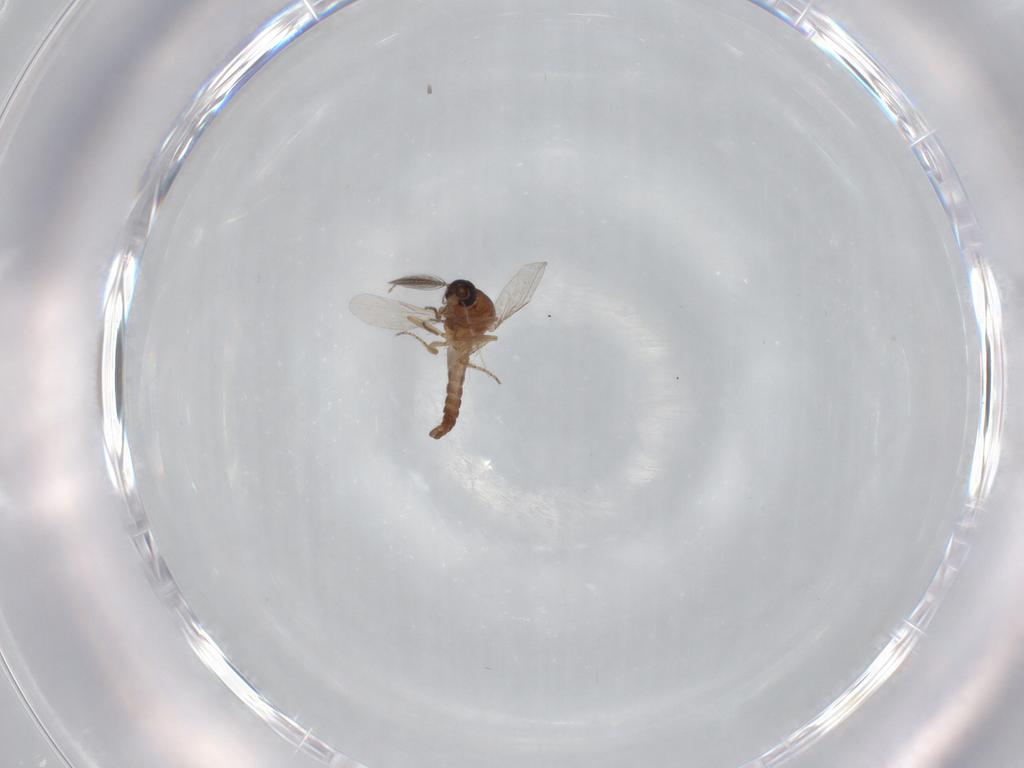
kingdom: Animalia
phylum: Arthropoda
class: Insecta
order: Diptera
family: Ceratopogonidae
